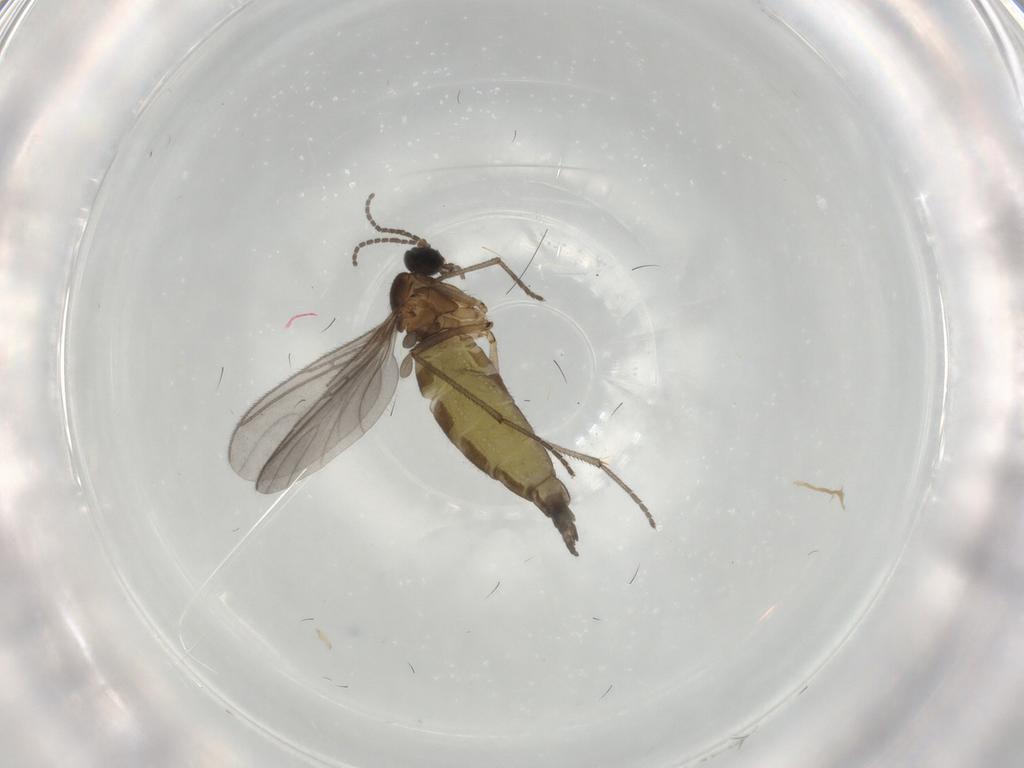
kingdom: Animalia
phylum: Arthropoda
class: Insecta
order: Diptera
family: Sciaridae
